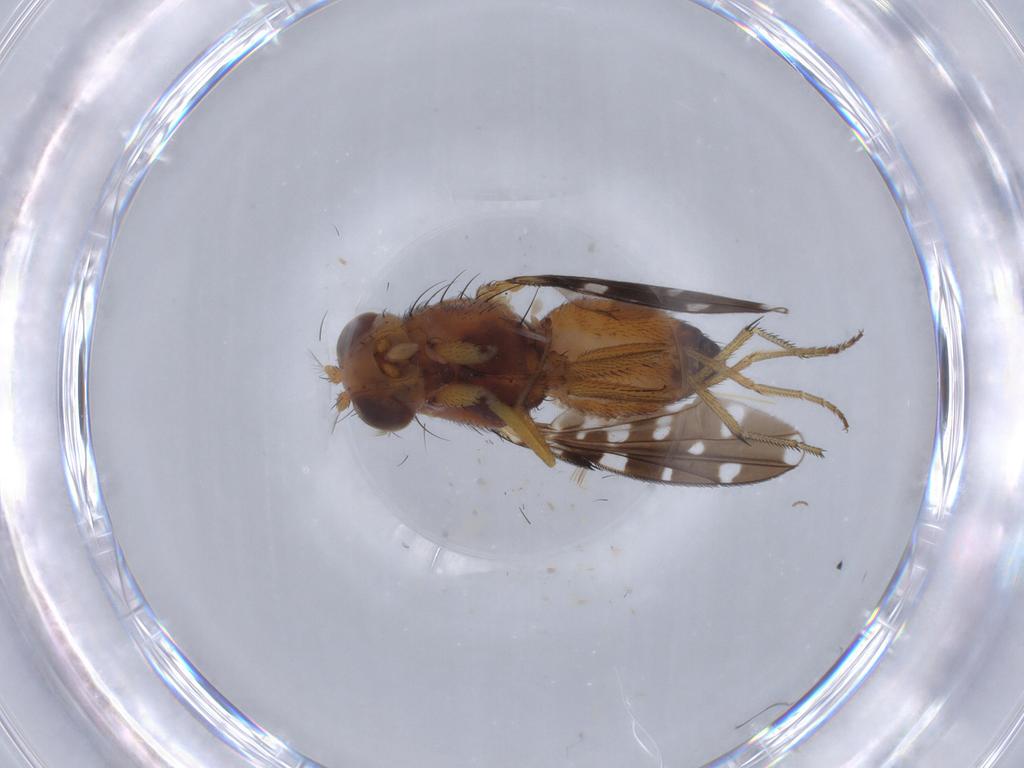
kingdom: Animalia
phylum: Arthropoda
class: Insecta
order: Diptera
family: Ephydridae
